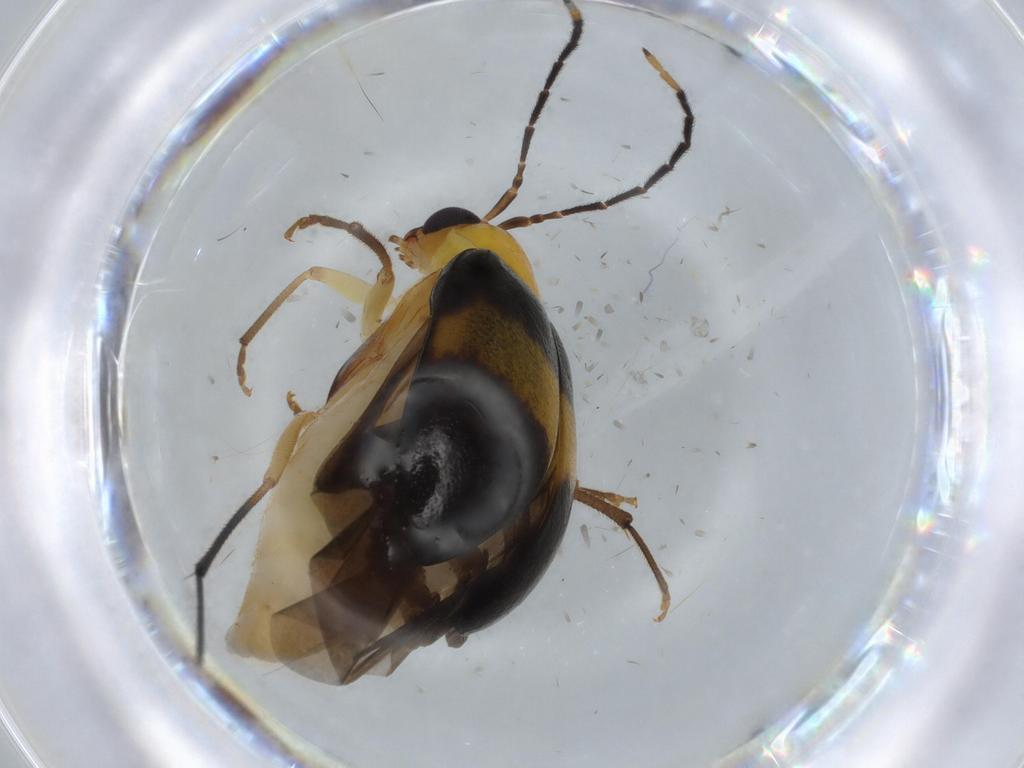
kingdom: Animalia
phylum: Arthropoda
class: Insecta
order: Coleoptera
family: Chrysomelidae
